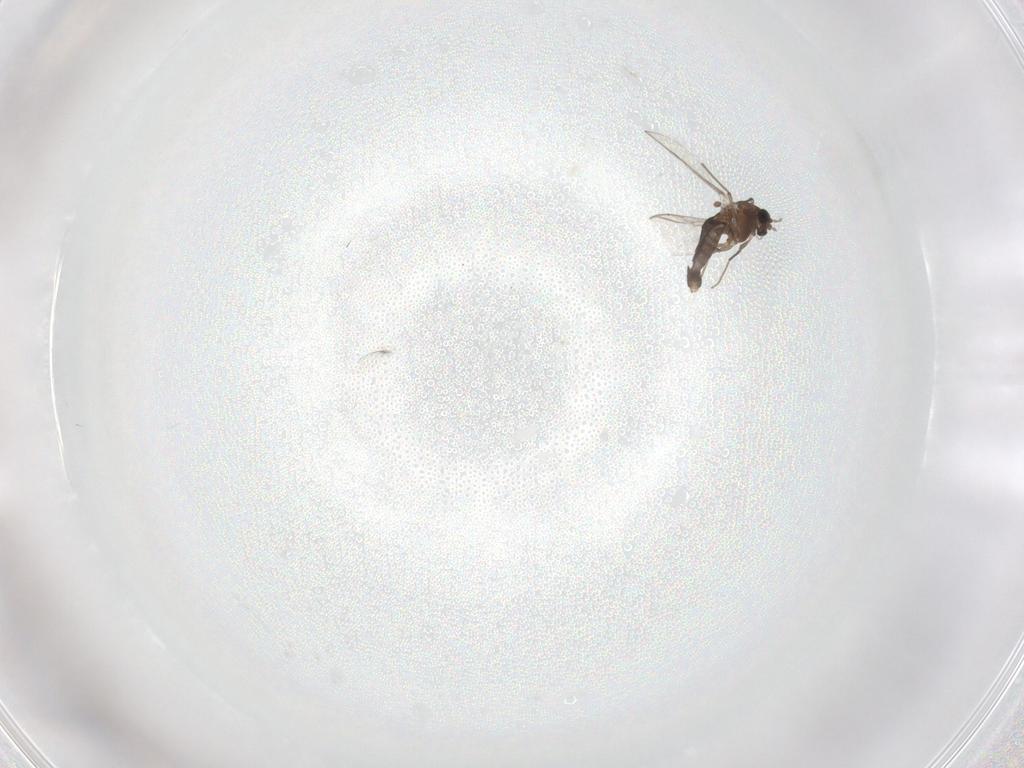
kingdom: Animalia
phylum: Arthropoda
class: Insecta
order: Diptera
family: Chironomidae
